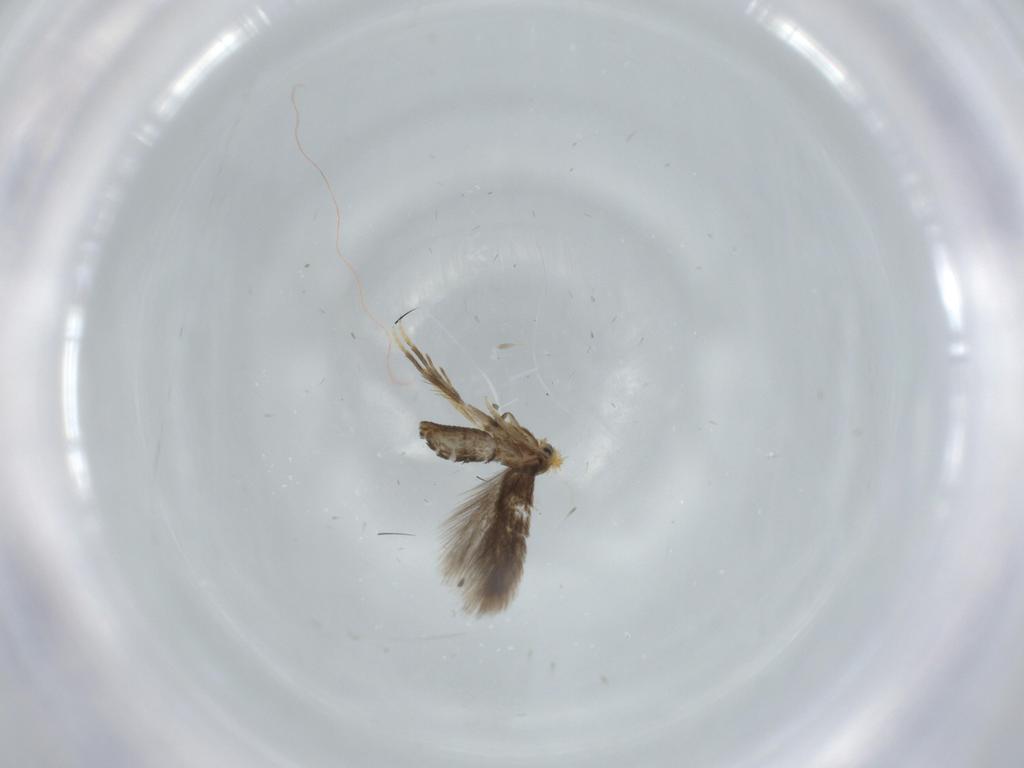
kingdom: Animalia
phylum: Arthropoda
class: Insecta
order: Lepidoptera
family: Nepticulidae
